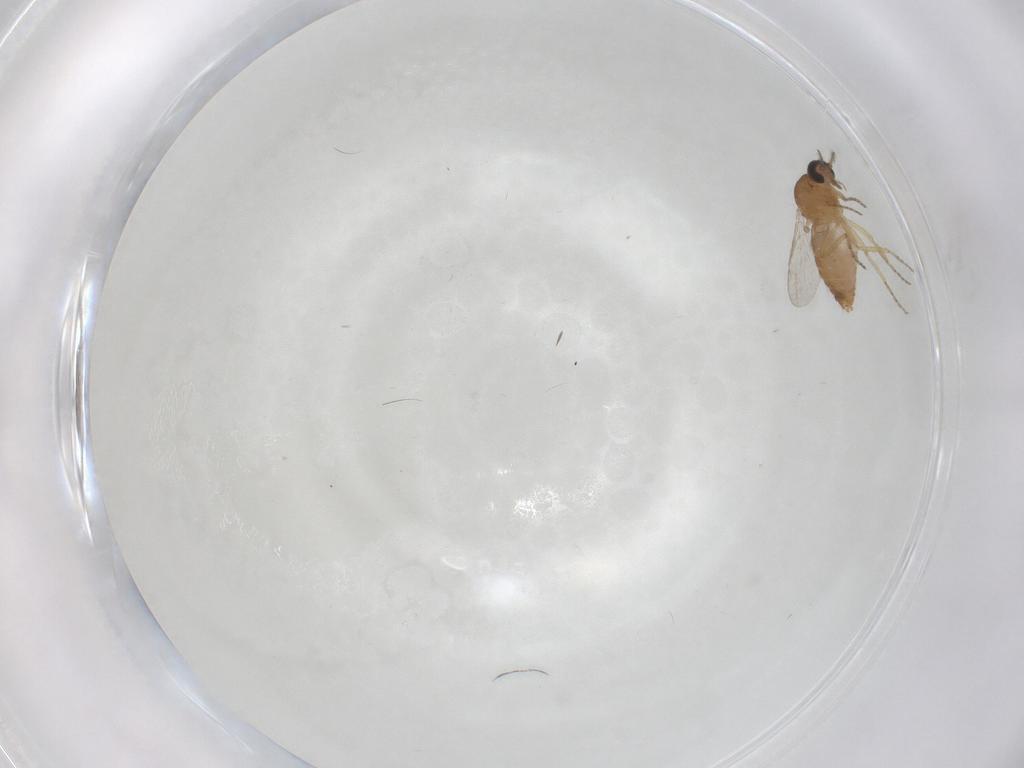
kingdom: Animalia
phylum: Arthropoda
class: Insecta
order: Diptera
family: Ceratopogonidae
